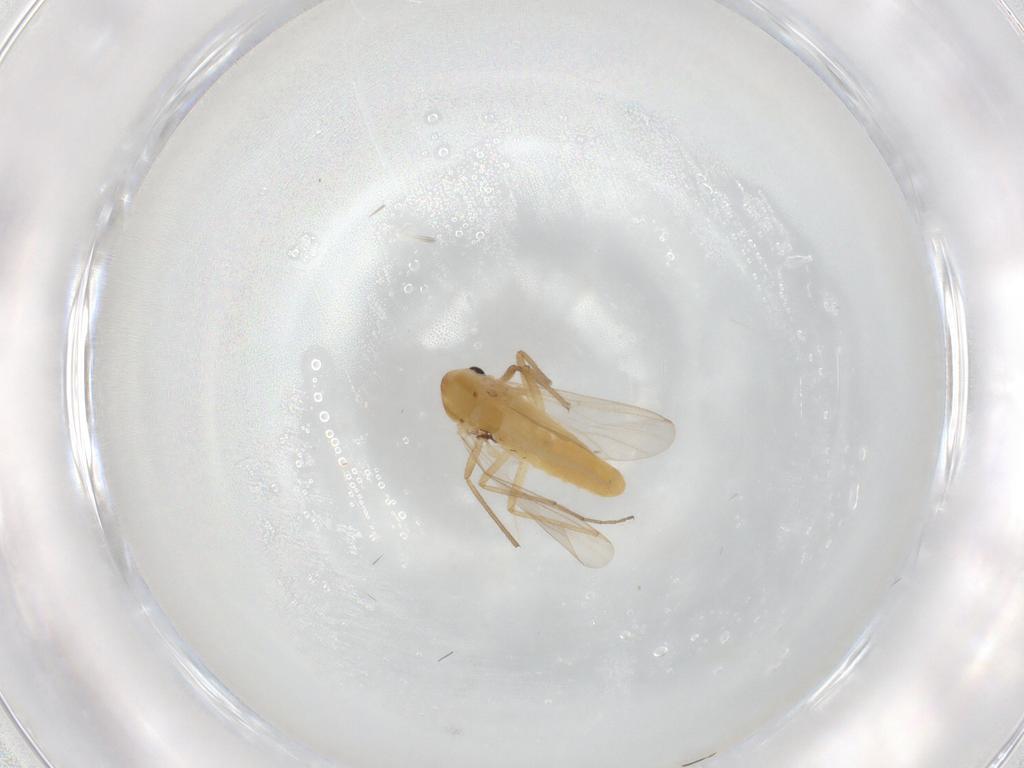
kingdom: Animalia
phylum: Arthropoda
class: Insecta
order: Diptera
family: Chironomidae
